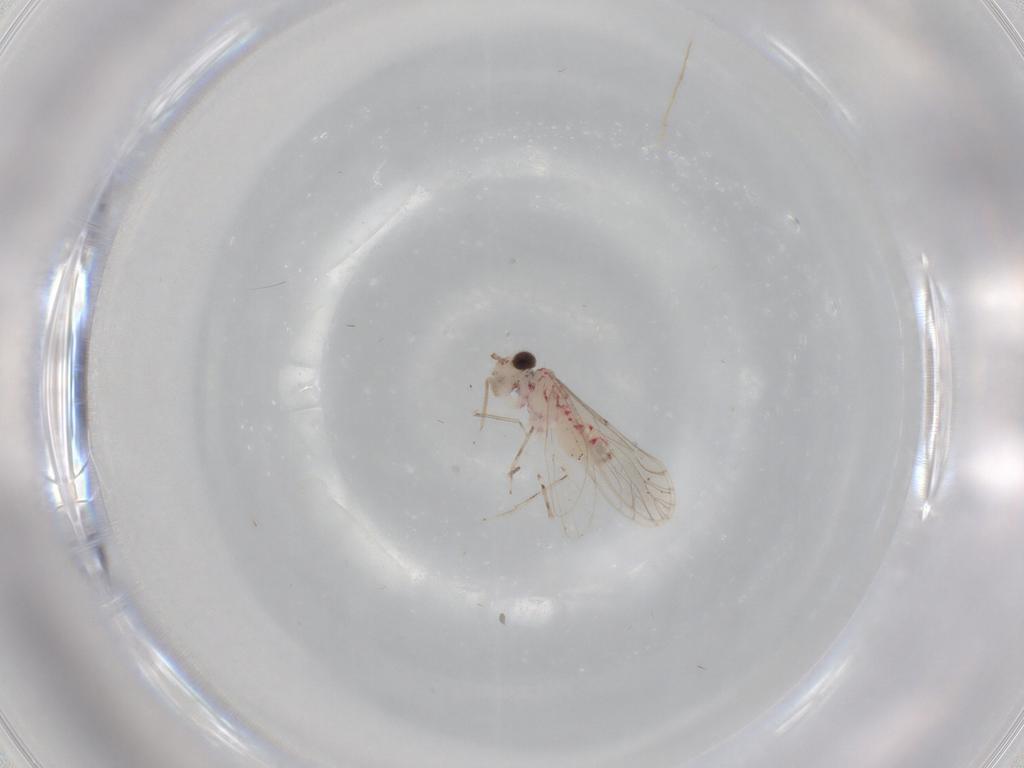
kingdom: Animalia
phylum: Arthropoda
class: Insecta
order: Psocodea
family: Caeciliusidae
